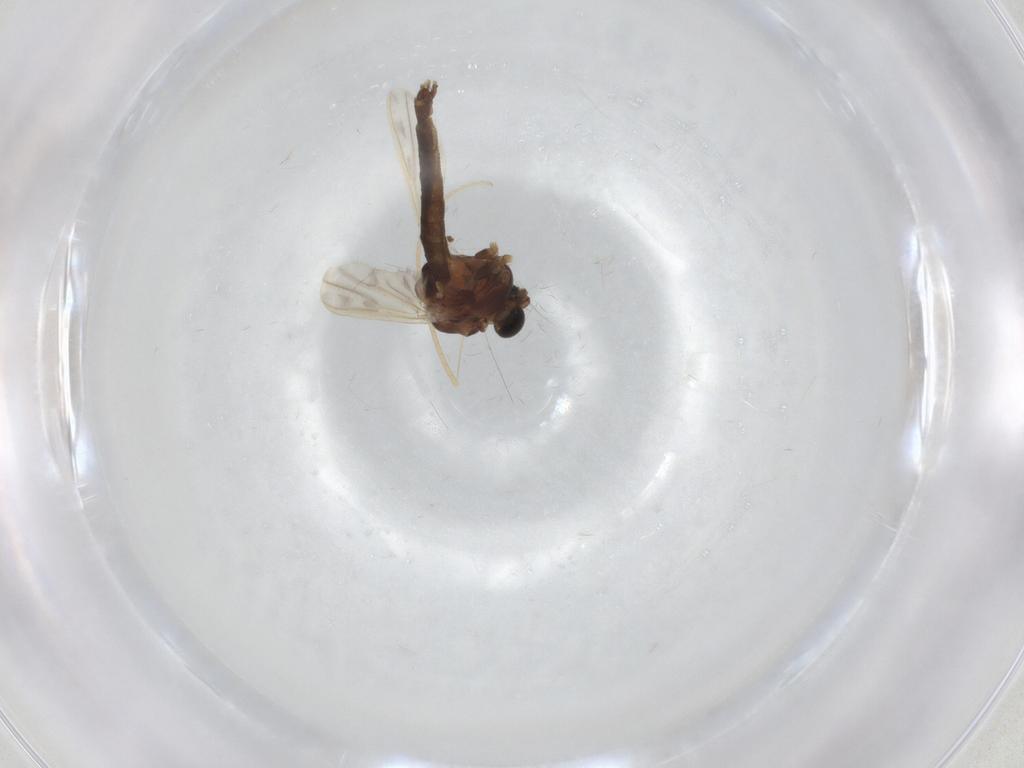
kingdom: Animalia
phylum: Arthropoda
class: Insecta
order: Diptera
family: Chironomidae
